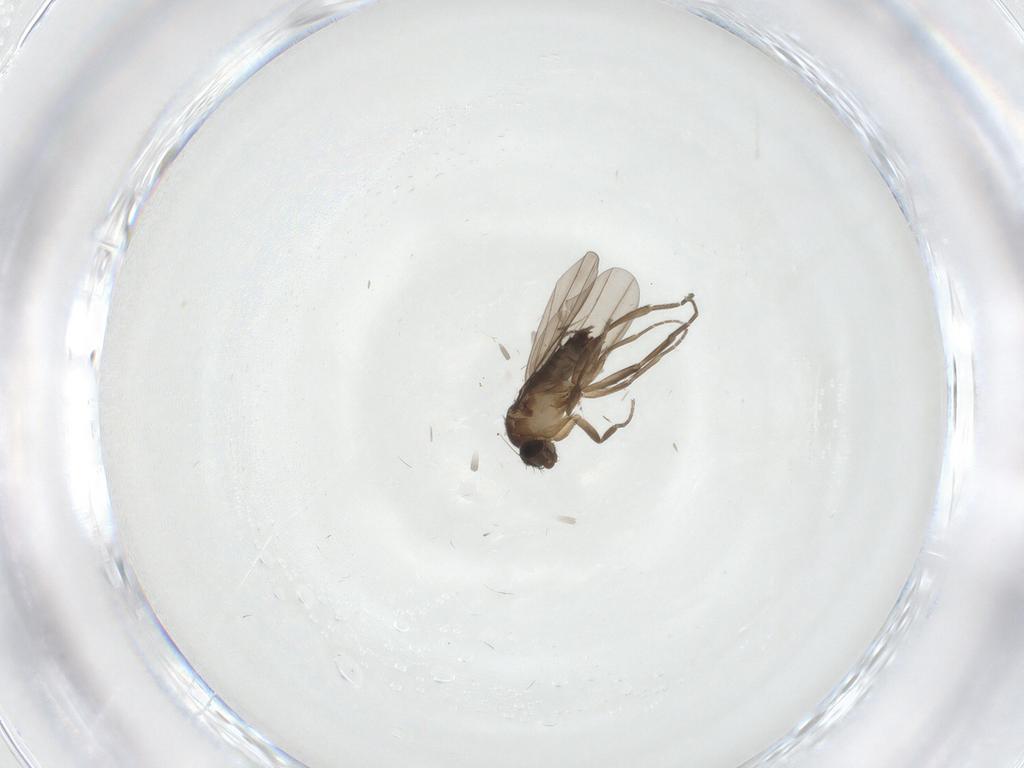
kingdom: Animalia
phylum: Arthropoda
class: Insecta
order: Diptera
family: Phoridae
